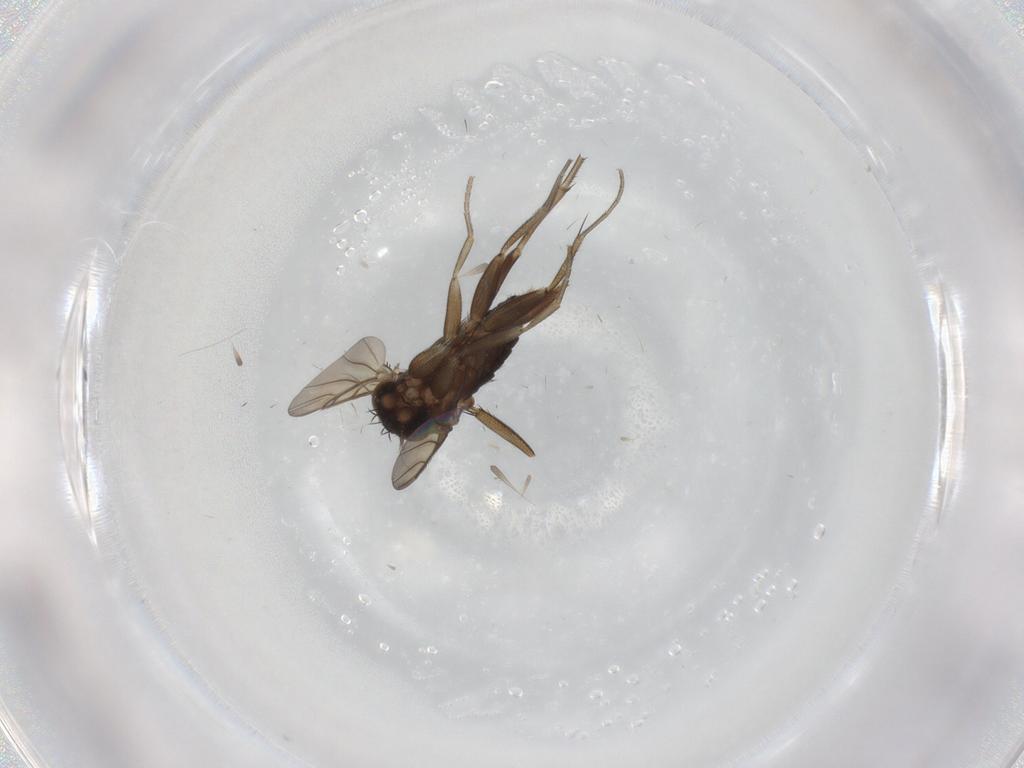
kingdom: Animalia
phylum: Arthropoda
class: Insecta
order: Diptera
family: Phoridae
